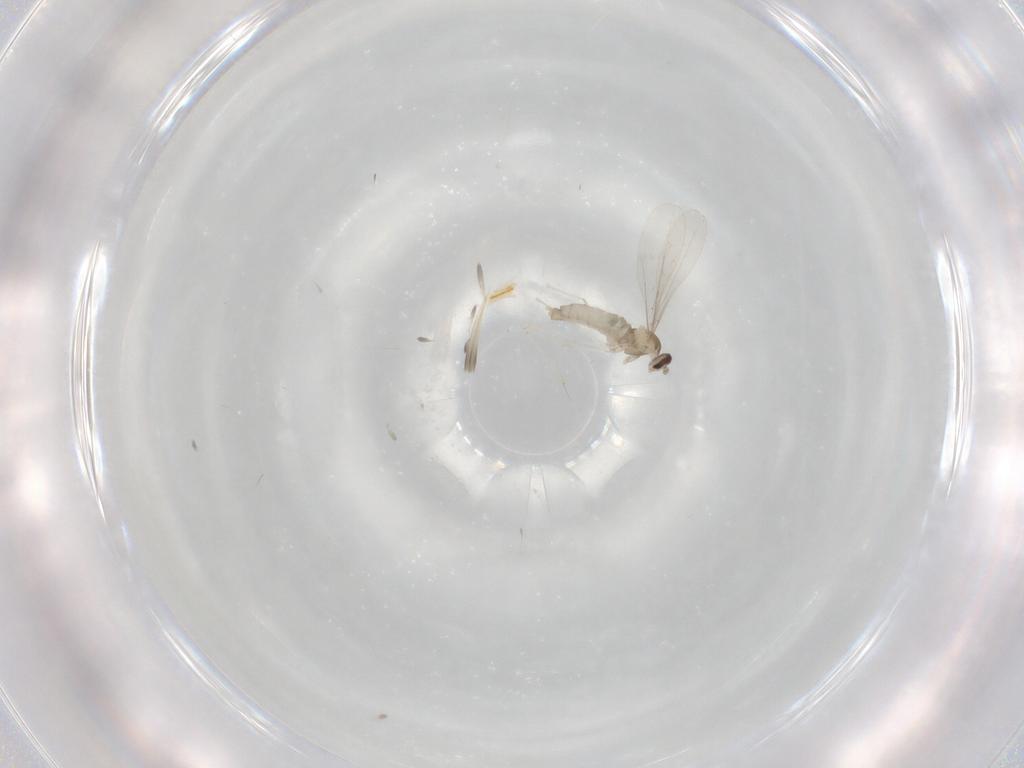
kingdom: Animalia
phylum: Arthropoda
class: Insecta
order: Diptera
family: Cecidomyiidae
